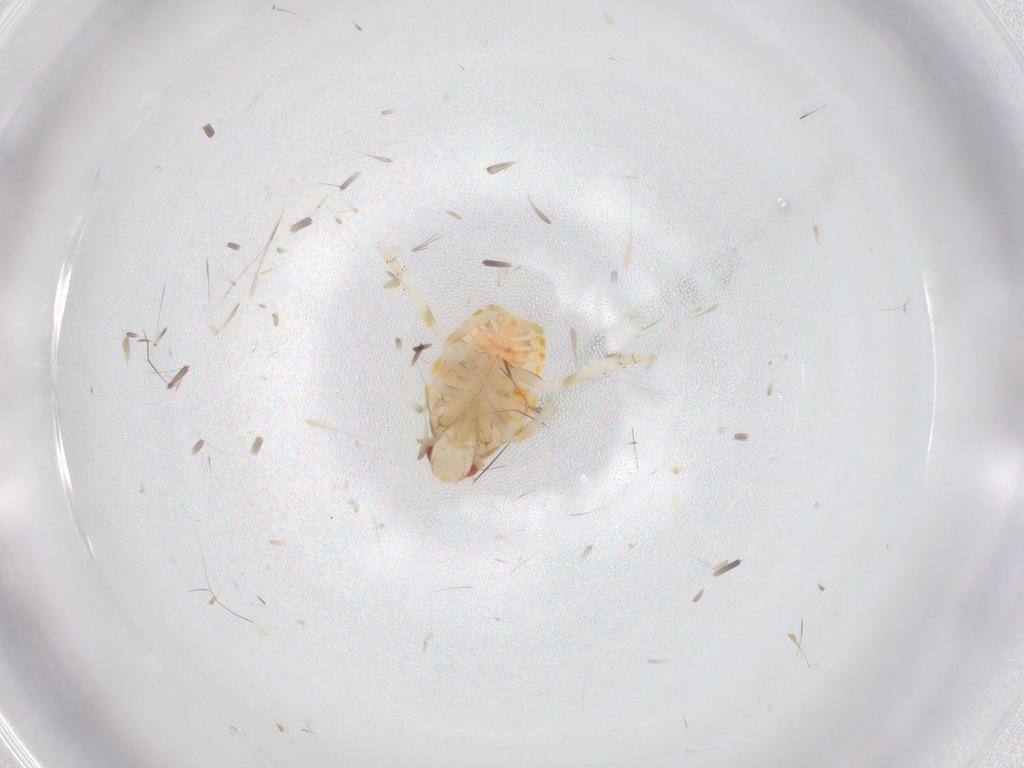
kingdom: Animalia
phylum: Arthropoda
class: Insecta
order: Hemiptera
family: Flatidae
